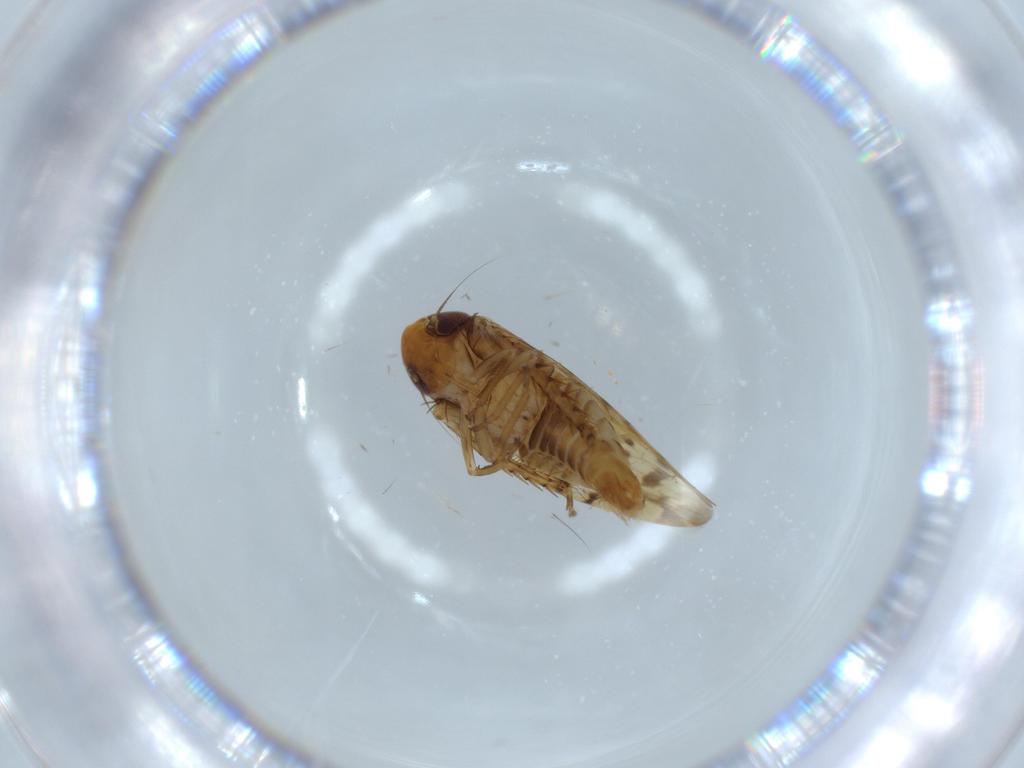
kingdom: Animalia
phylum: Arthropoda
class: Insecta
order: Hemiptera
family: Cicadellidae
